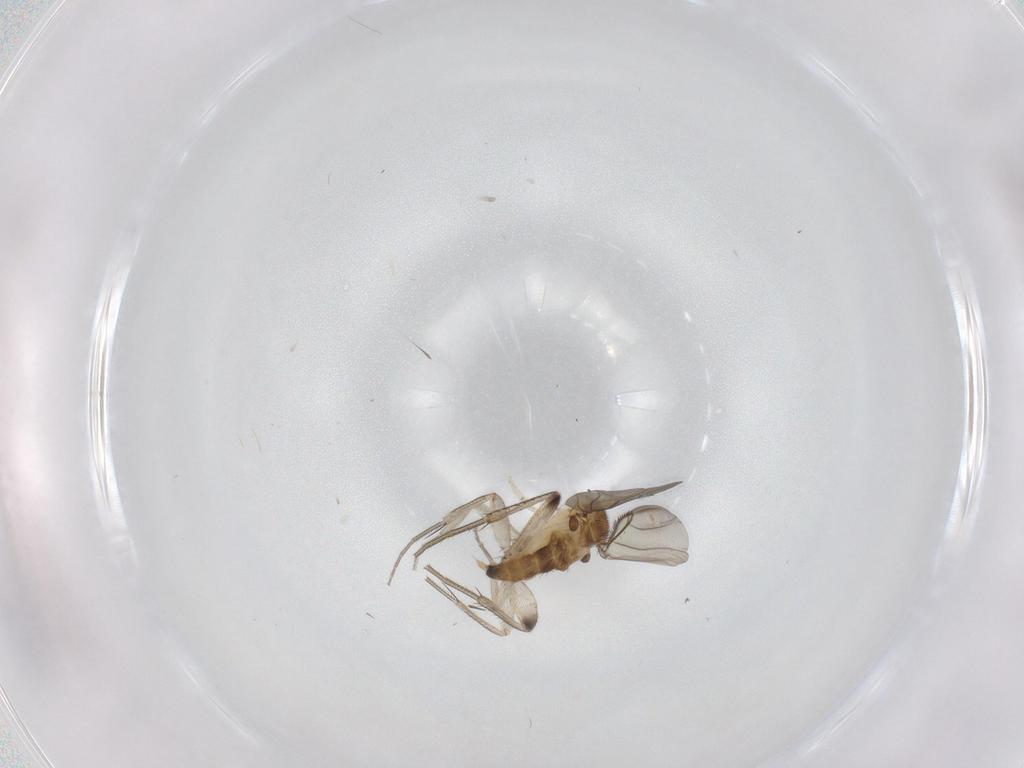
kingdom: Animalia
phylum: Arthropoda
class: Insecta
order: Diptera
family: Phoridae
